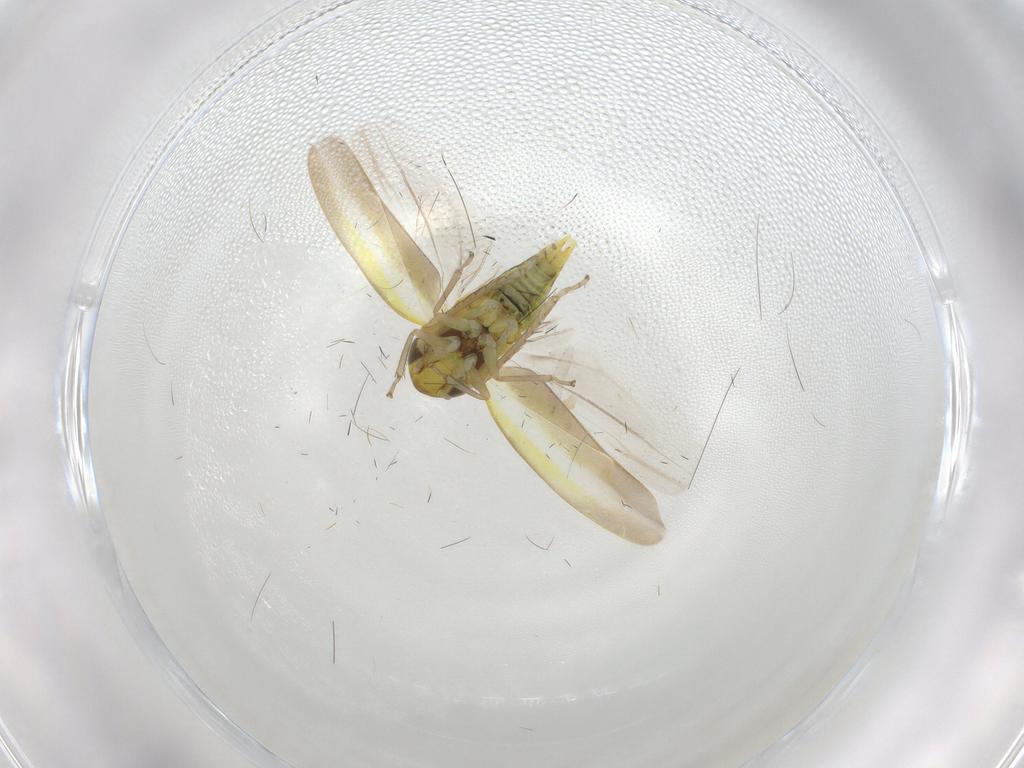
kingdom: Animalia
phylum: Arthropoda
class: Insecta
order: Hemiptera
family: Cicadellidae
